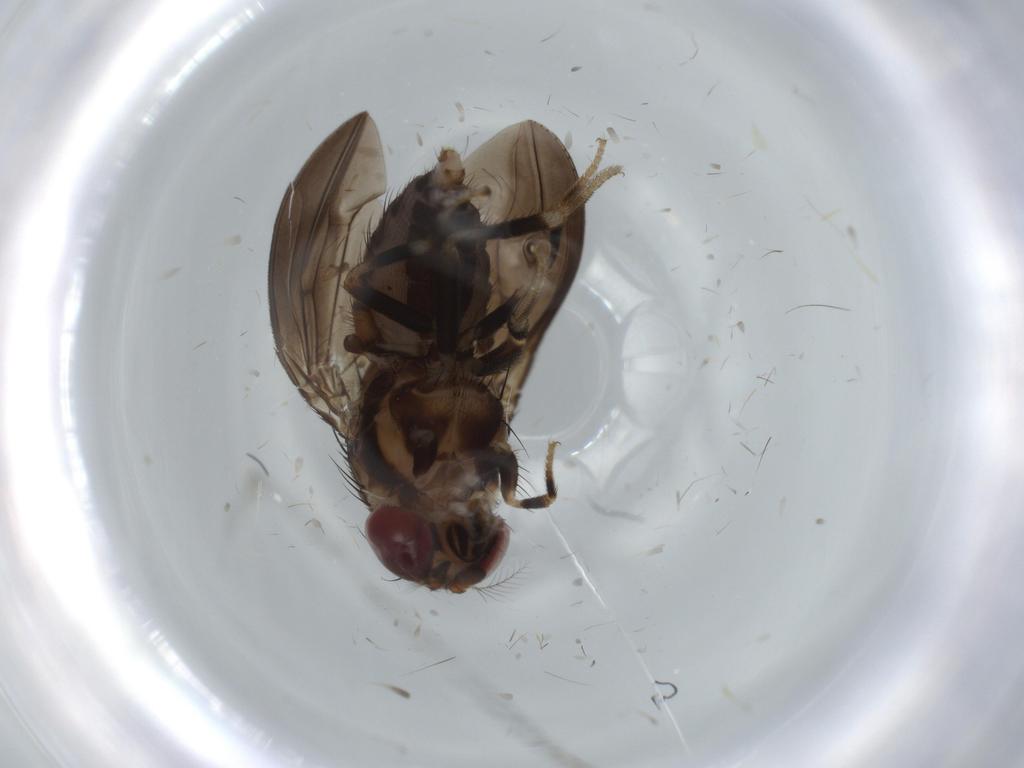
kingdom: Animalia
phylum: Arthropoda
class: Insecta
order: Diptera
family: Drosophilidae
